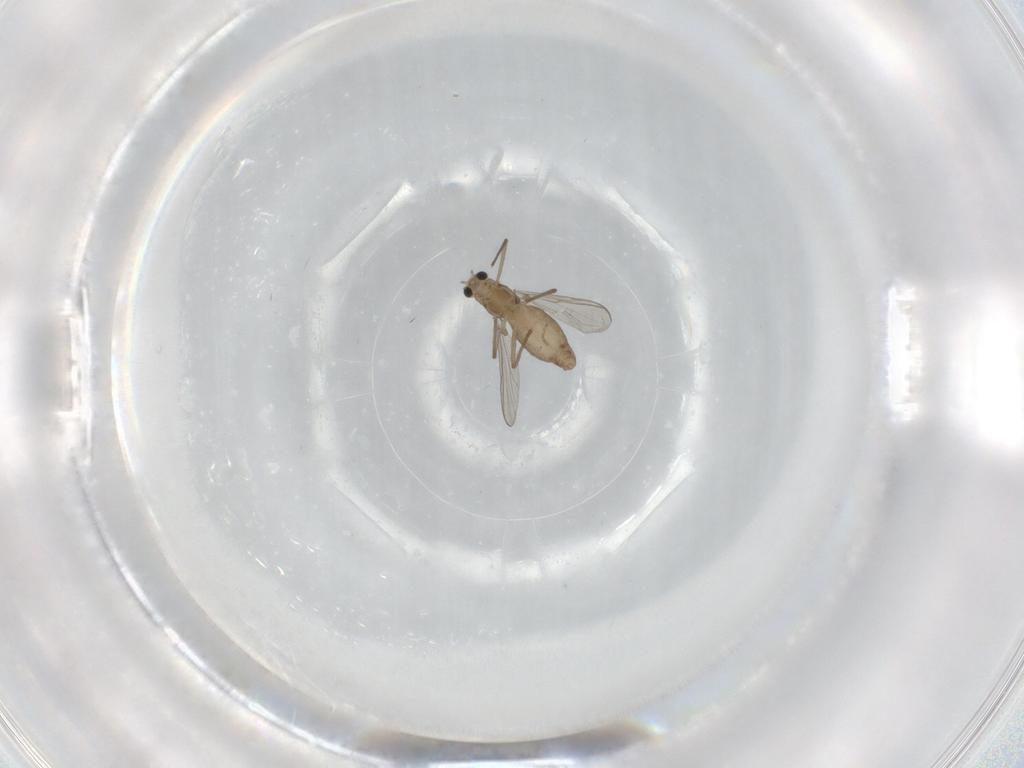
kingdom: Animalia
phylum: Arthropoda
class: Insecta
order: Diptera
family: Chironomidae
